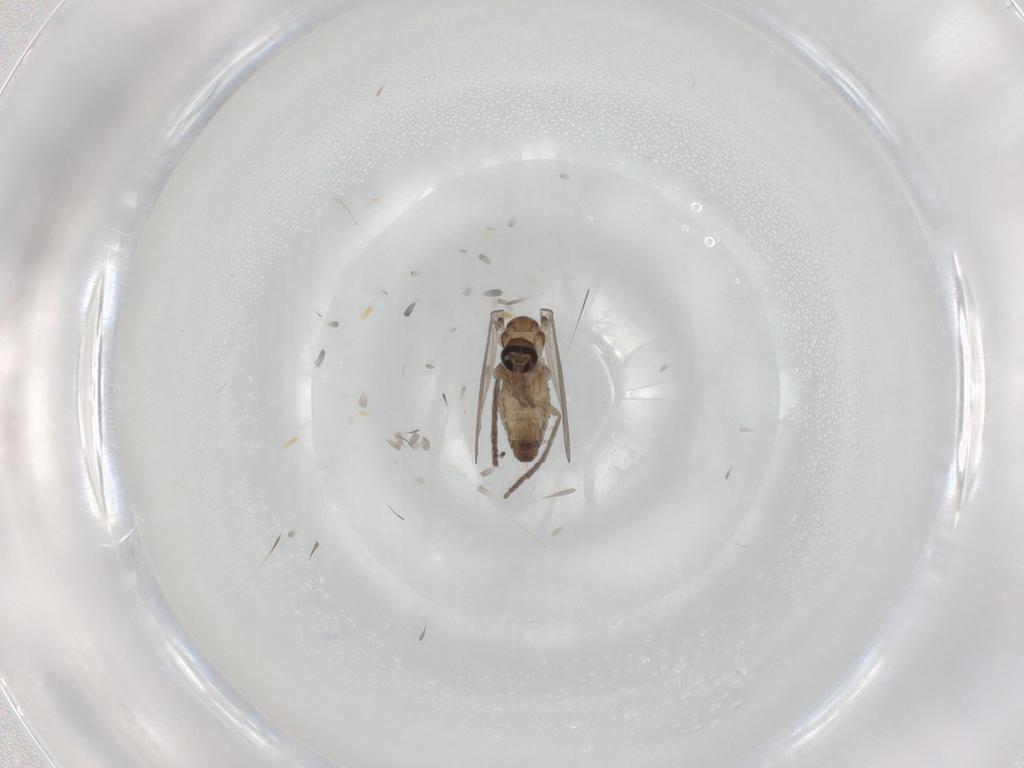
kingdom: Animalia
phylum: Arthropoda
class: Insecta
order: Diptera
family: Psychodidae
